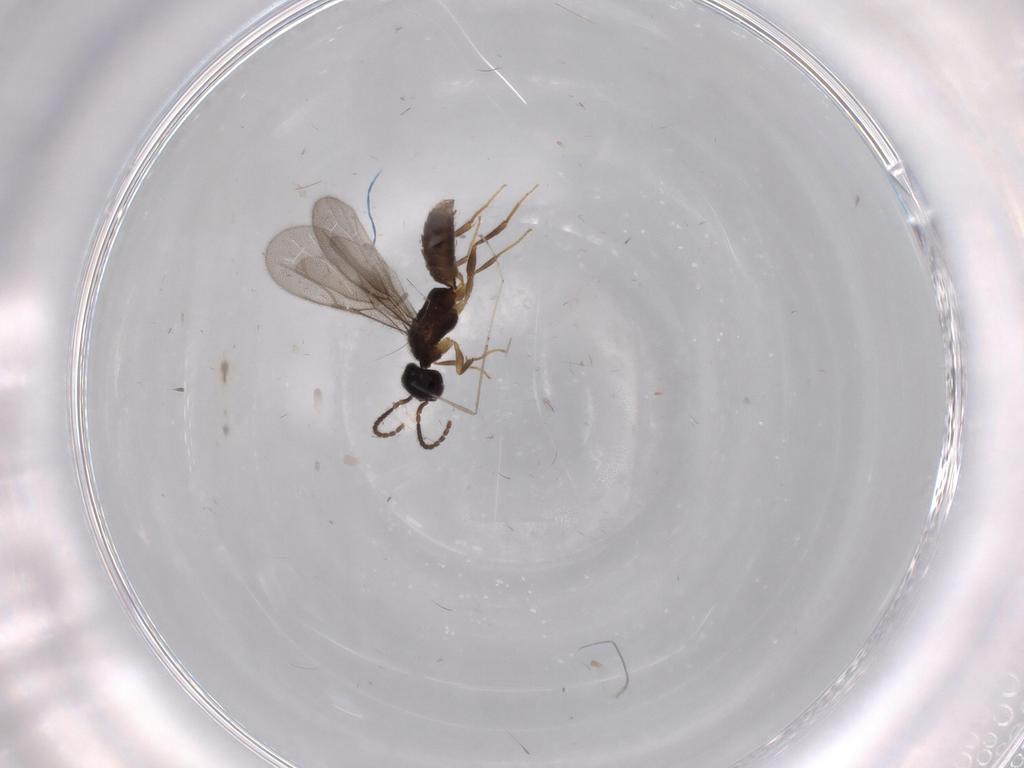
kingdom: Animalia
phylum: Arthropoda
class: Insecta
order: Hymenoptera
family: Bethylidae
